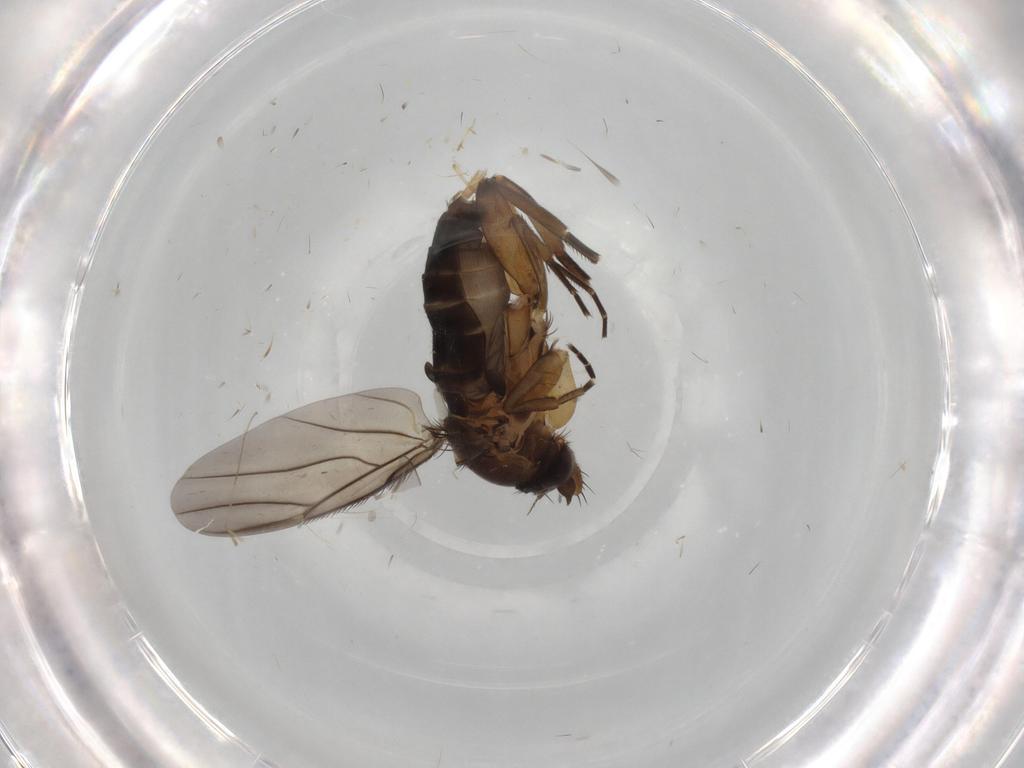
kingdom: Animalia
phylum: Arthropoda
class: Insecta
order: Diptera
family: Phoridae
